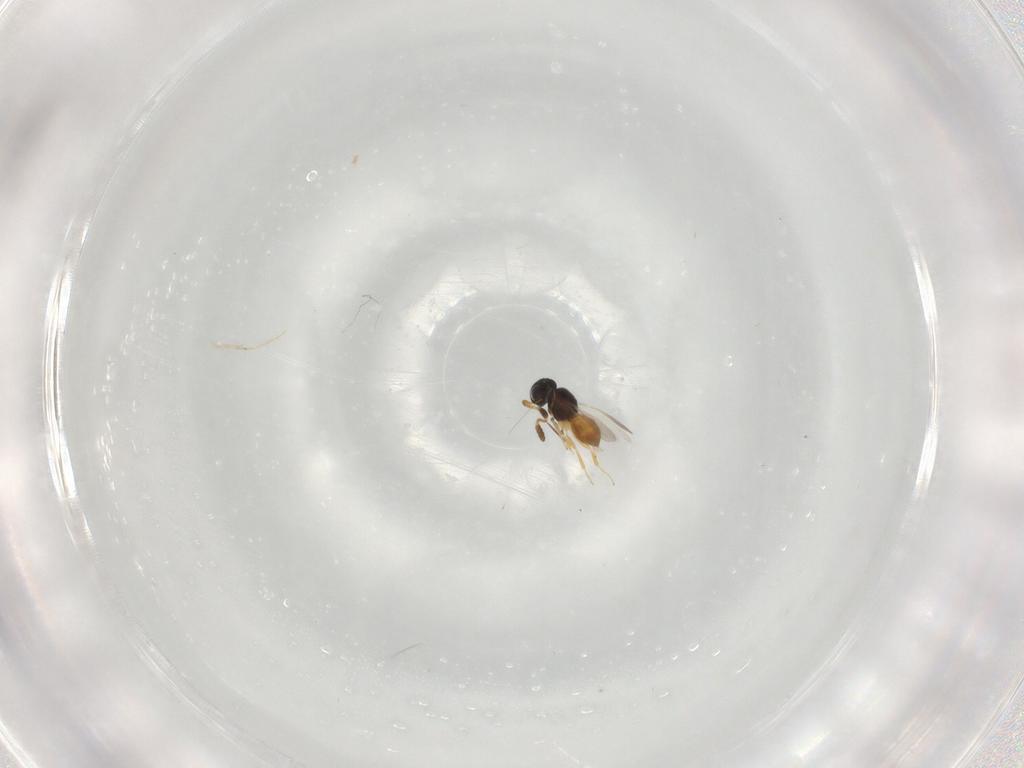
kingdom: Animalia
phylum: Arthropoda
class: Insecta
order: Hymenoptera
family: Scelionidae
